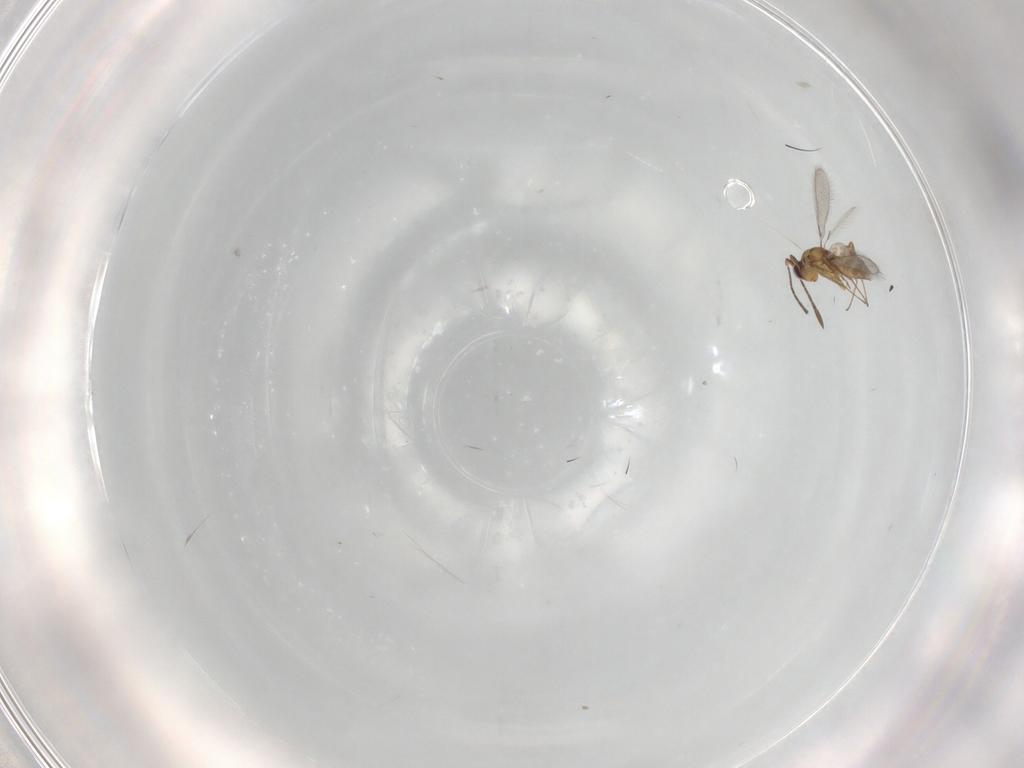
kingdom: Animalia
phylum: Arthropoda
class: Insecta
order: Hymenoptera
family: Mymaridae
